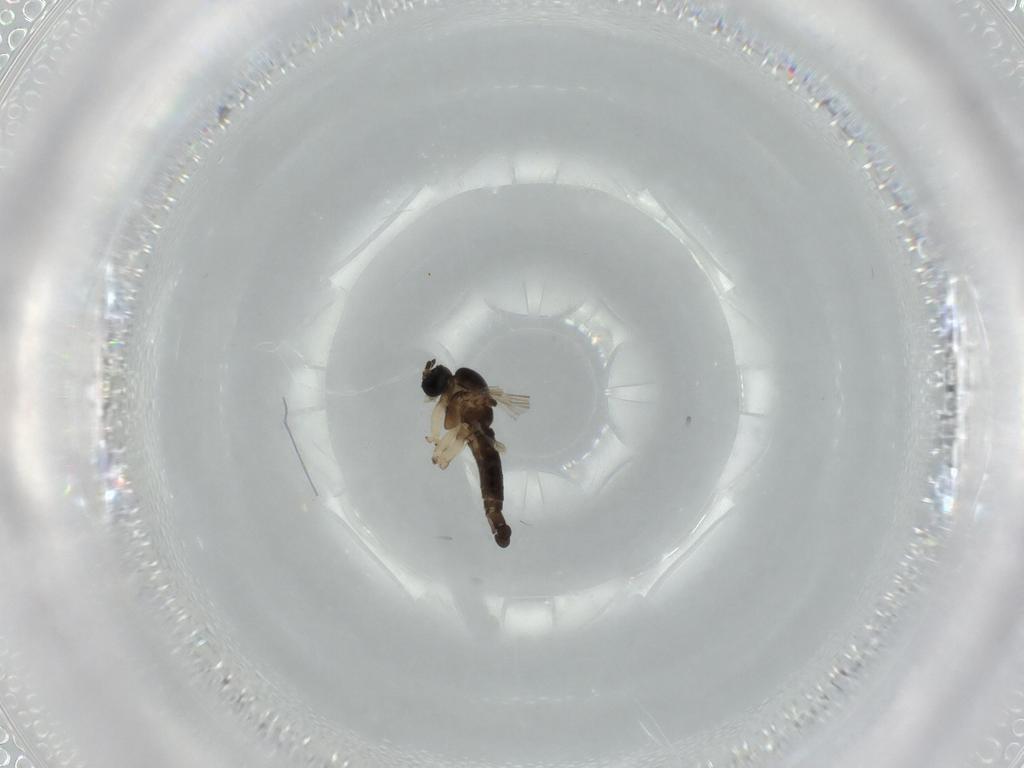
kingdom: Animalia
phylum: Arthropoda
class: Insecta
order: Diptera
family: Sciaridae
